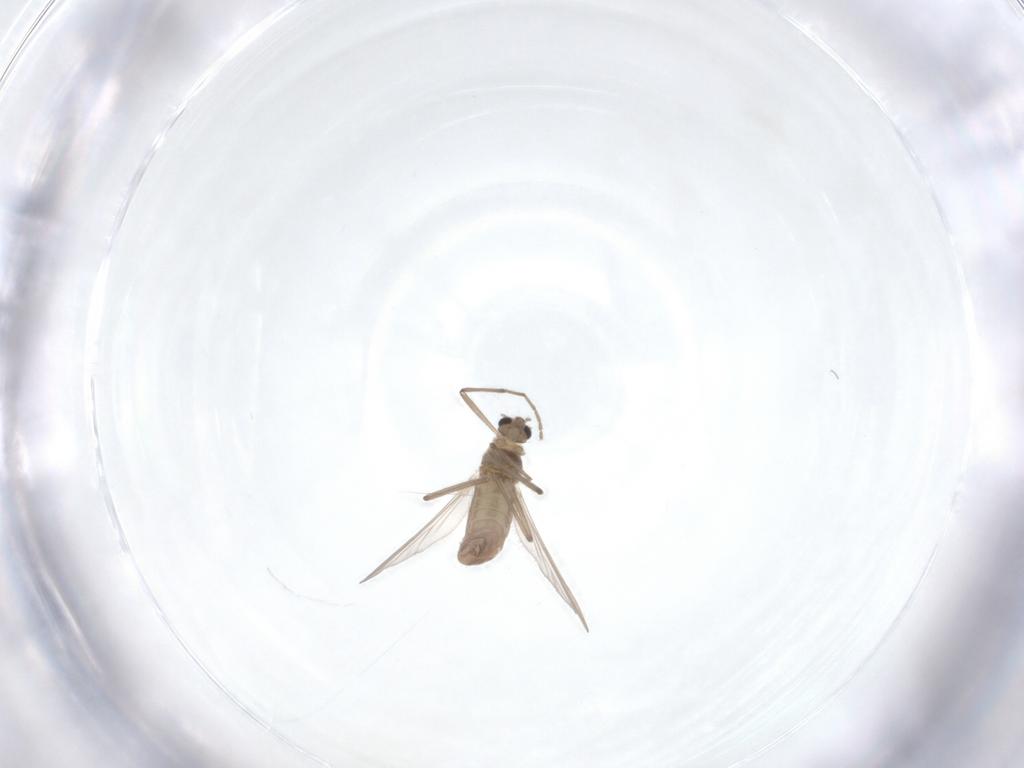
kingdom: Animalia
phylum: Arthropoda
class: Insecta
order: Diptera
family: Chironomidae
